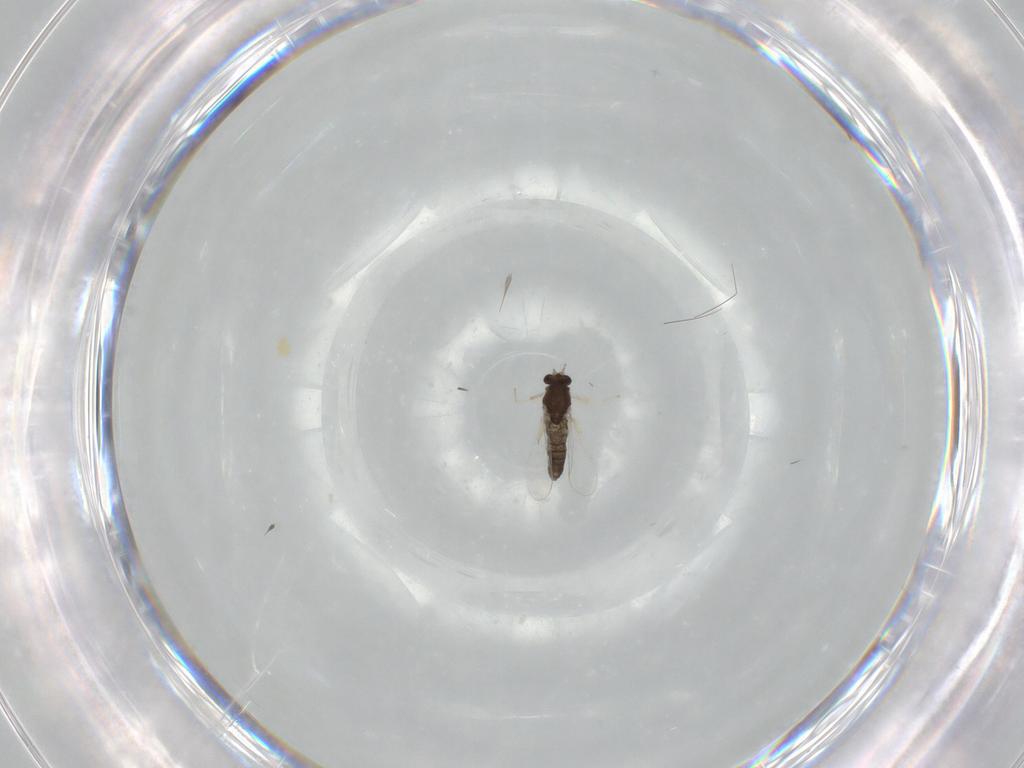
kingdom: Animalia
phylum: Arthropoda
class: Insecta
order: Diptera
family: Chironomidae
